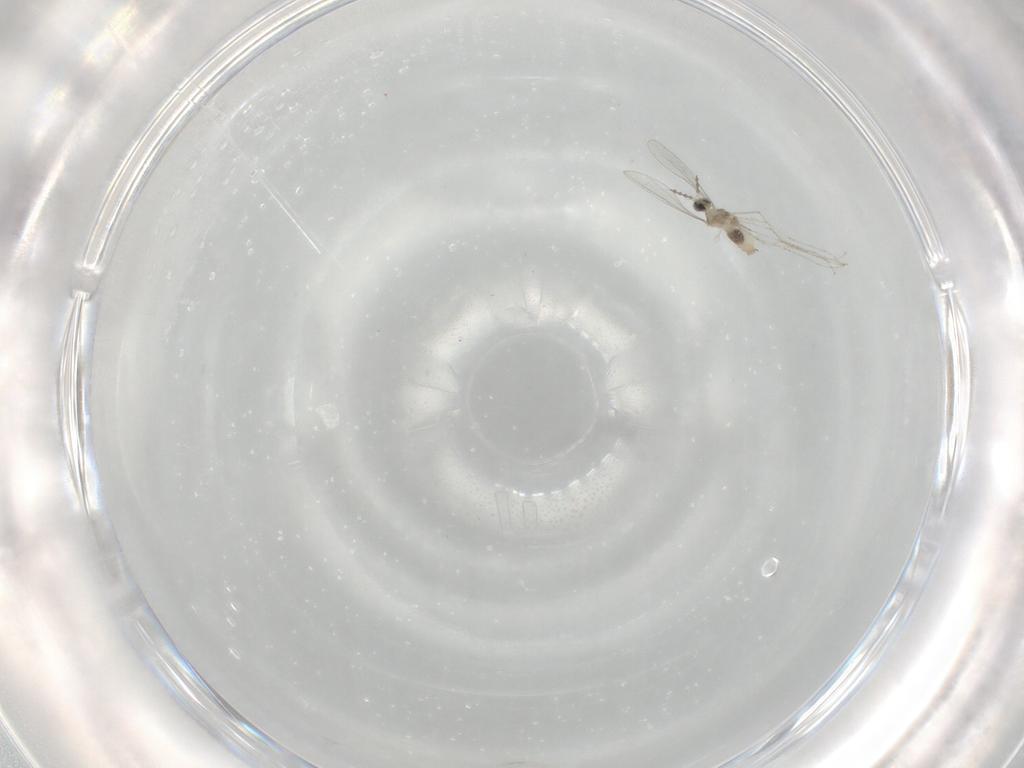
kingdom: Animalia
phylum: Arthropoda
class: Insecta
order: Diptera
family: Cecidomyiidae
